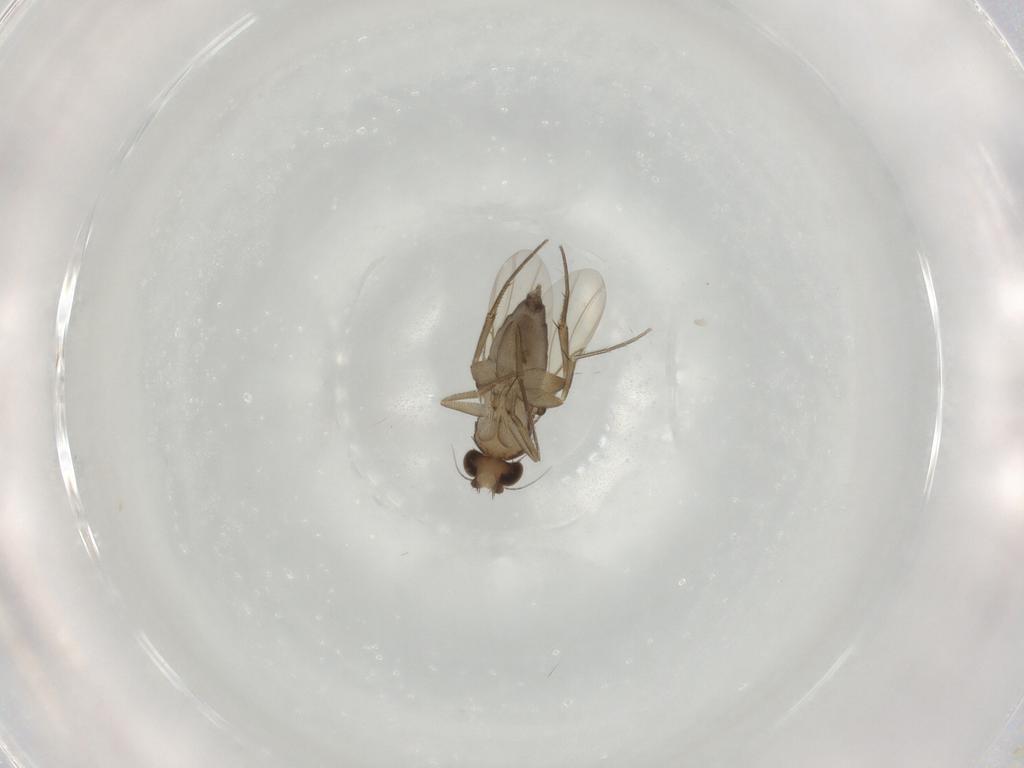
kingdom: Animalia
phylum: Arthropoda
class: Insecta
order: Diptera
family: Phoridae
